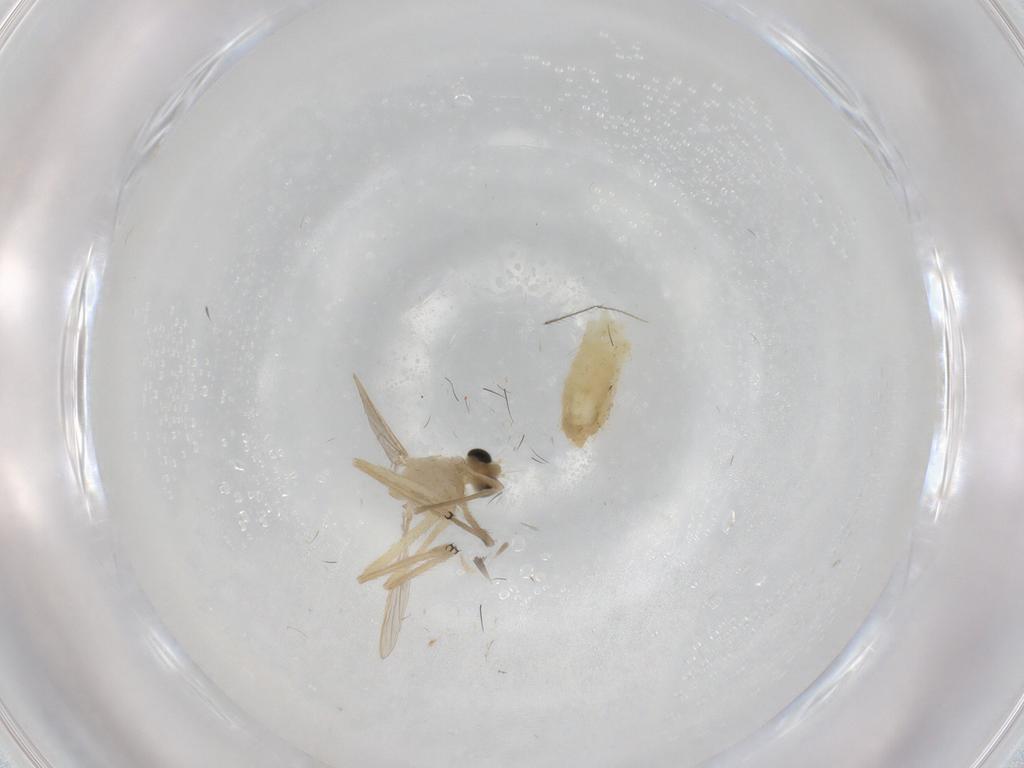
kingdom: Animalia
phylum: Arthropoda
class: Insecta
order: Diptera
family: Chironomidae
